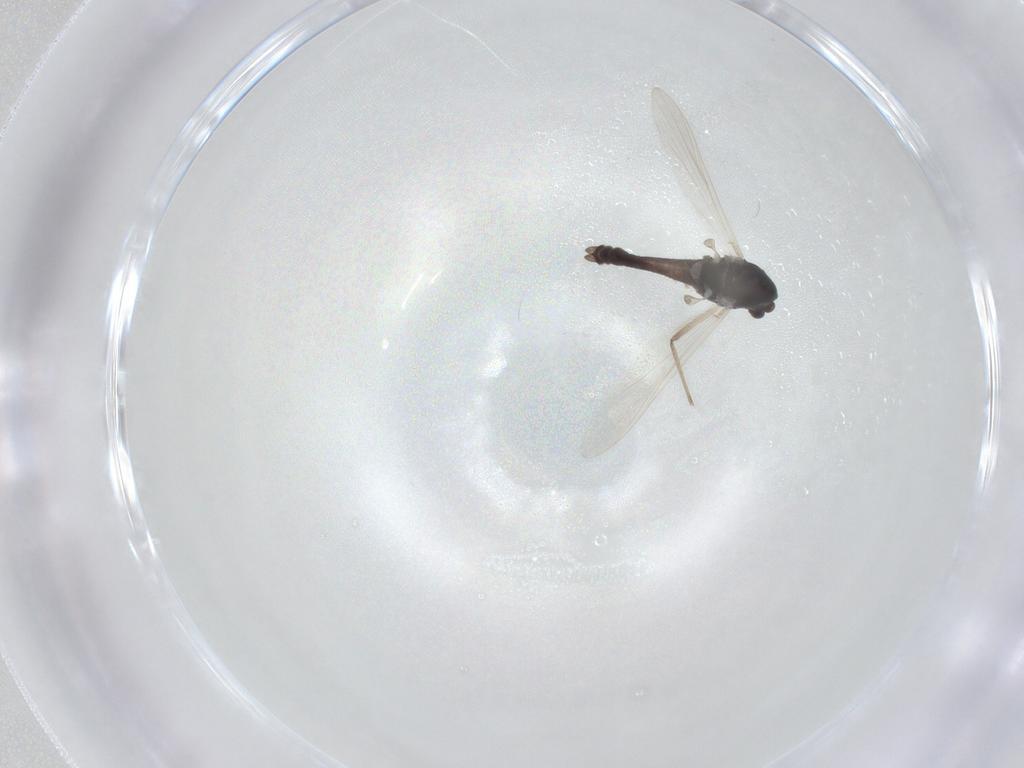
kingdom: Animalia
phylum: Arthropoda
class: Insecta
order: Diptera
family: Chironomidae
